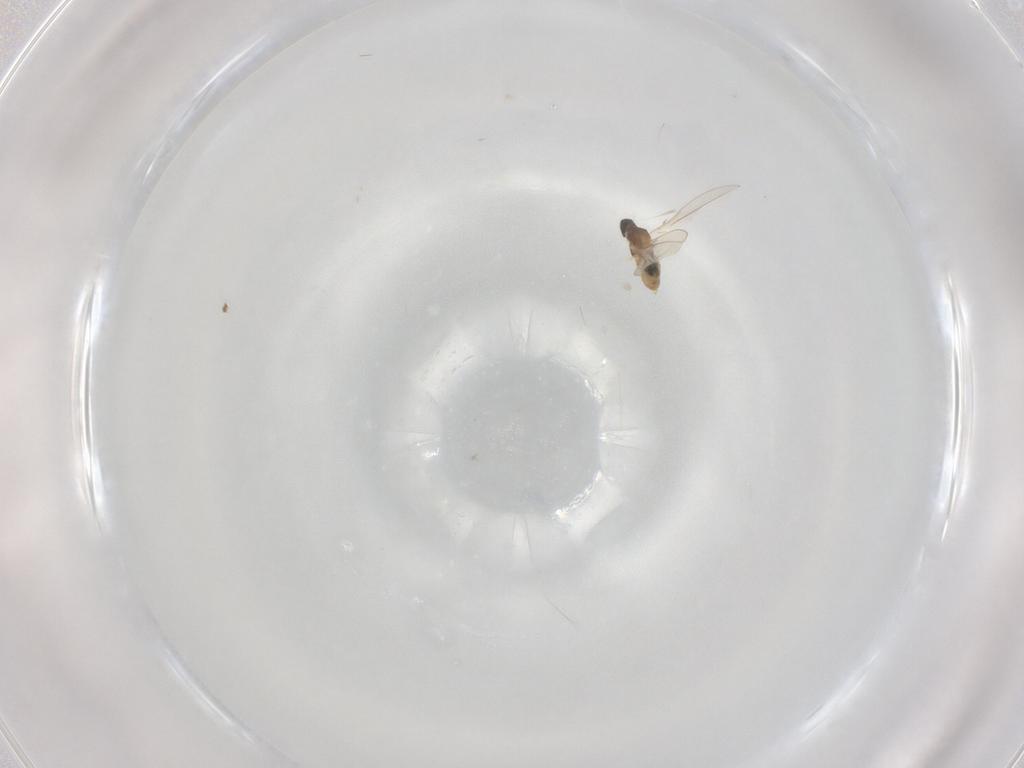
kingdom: Animalia
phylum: Arthropoda
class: Insecta
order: Diptera
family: Cecidomyiidae
